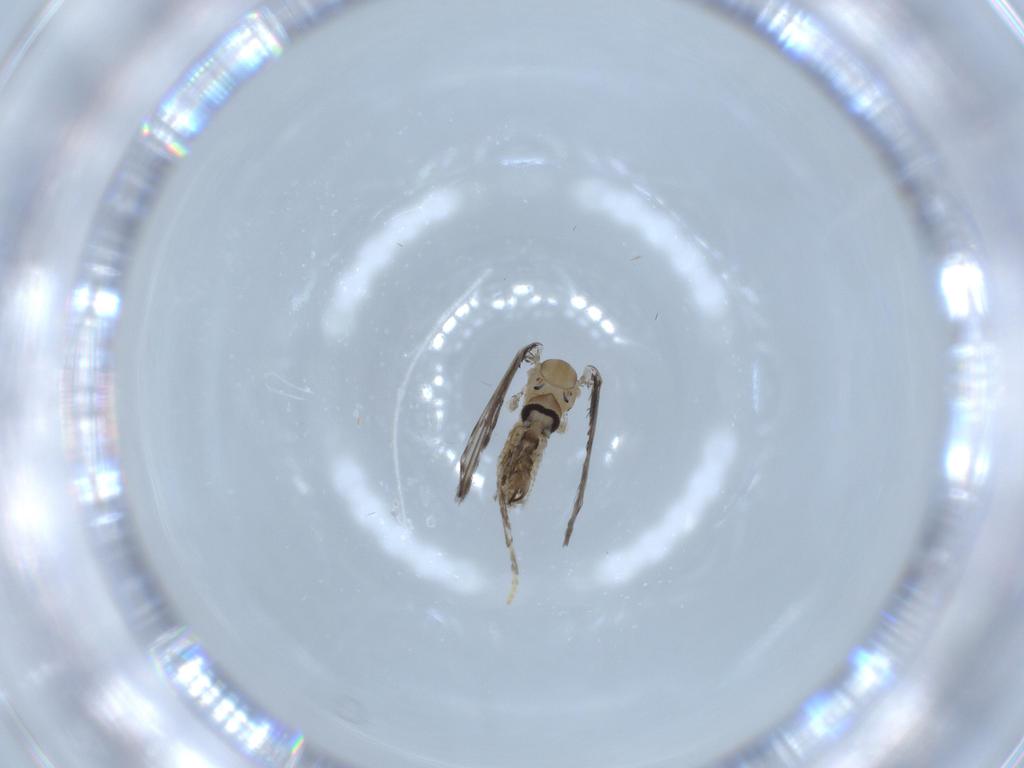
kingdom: Animalia
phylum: Arthropoda
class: Insecta
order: Diptera
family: Psychodidae
